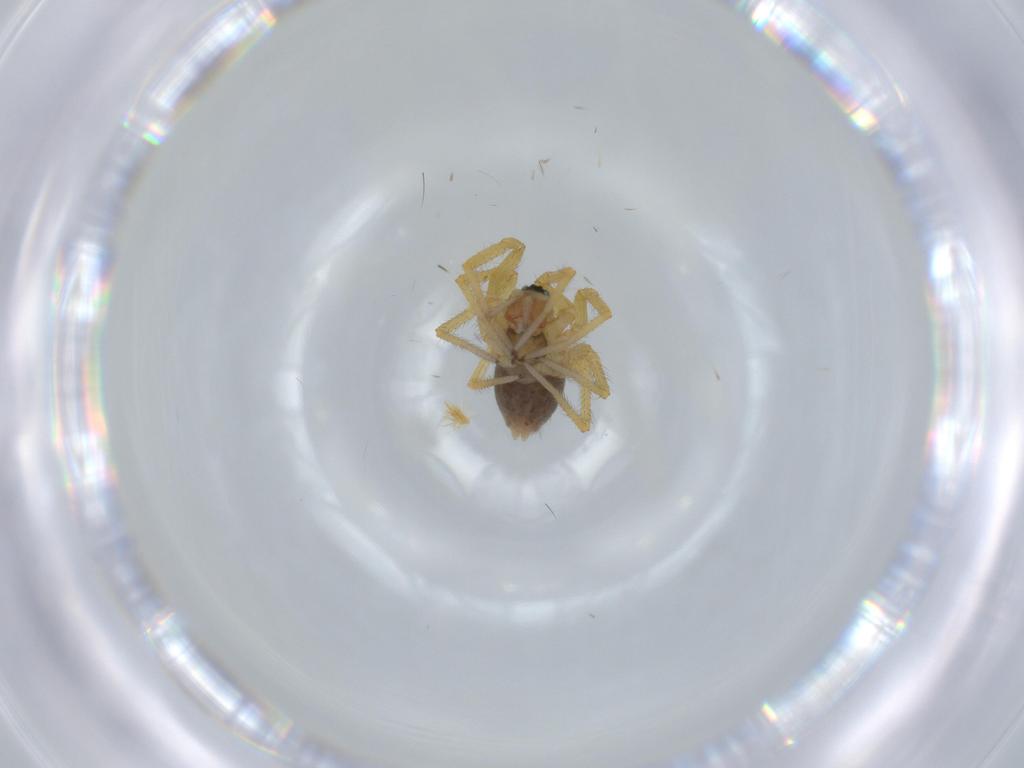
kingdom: Animalia
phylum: Arthropoda
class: Arachnida
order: Araneae
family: Linyphiidae
